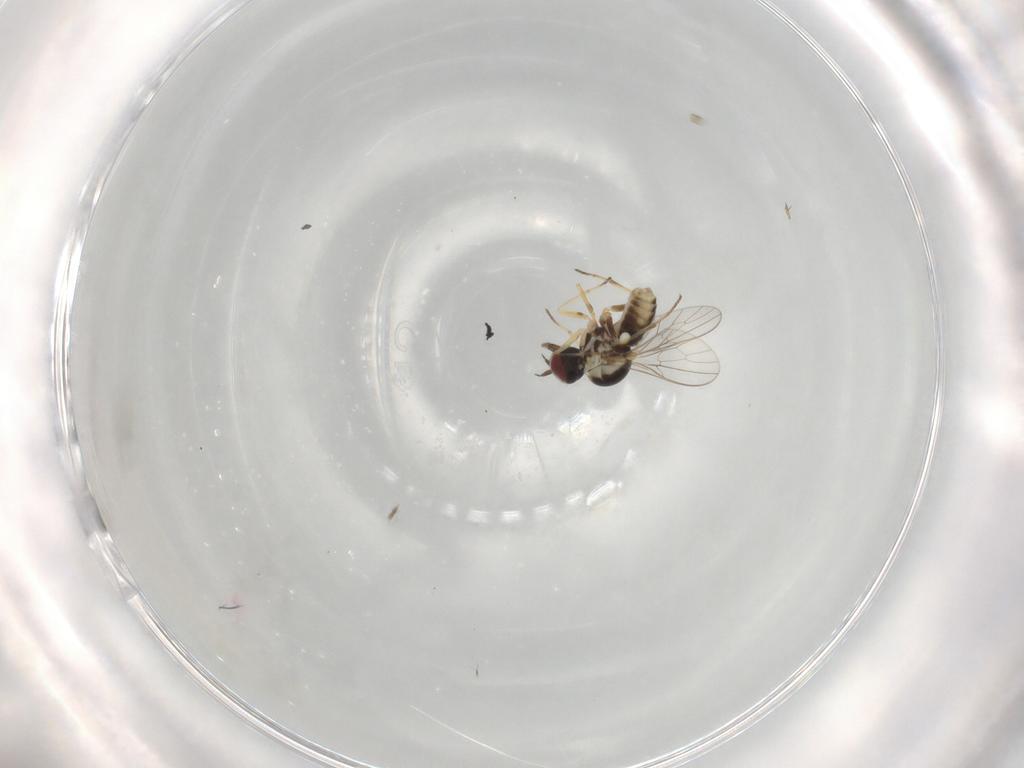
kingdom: Animalia
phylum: Arthropoda
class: Insecta
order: Diptera
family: Mythicomyiidae
